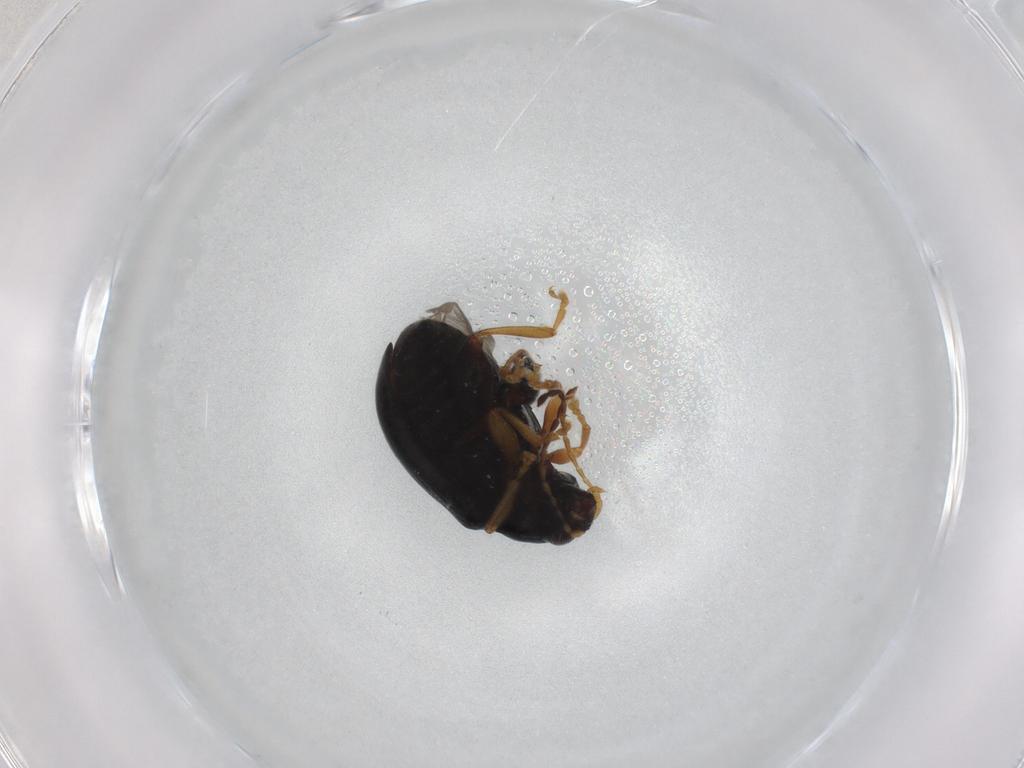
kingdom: Animalia
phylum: Arthropoda
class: Insecta
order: Coleoptera
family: Chrysomelidae
